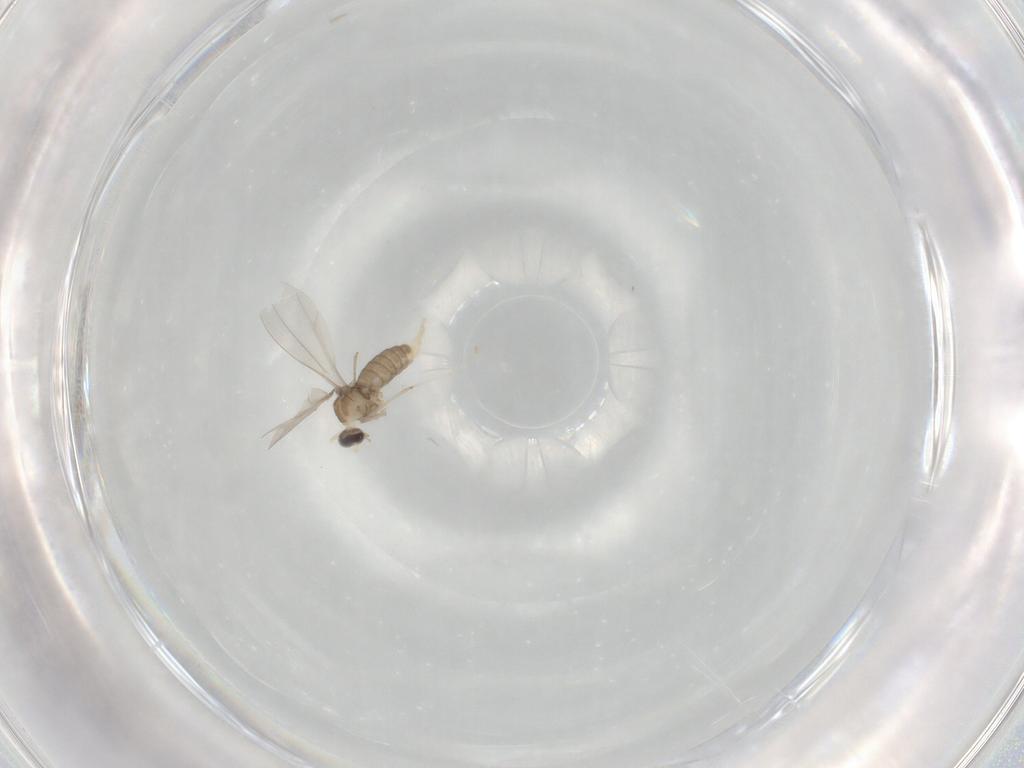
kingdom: Animalia
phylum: Arthropoda
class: Insecta
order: Diptera
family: Cecidomyiidae
